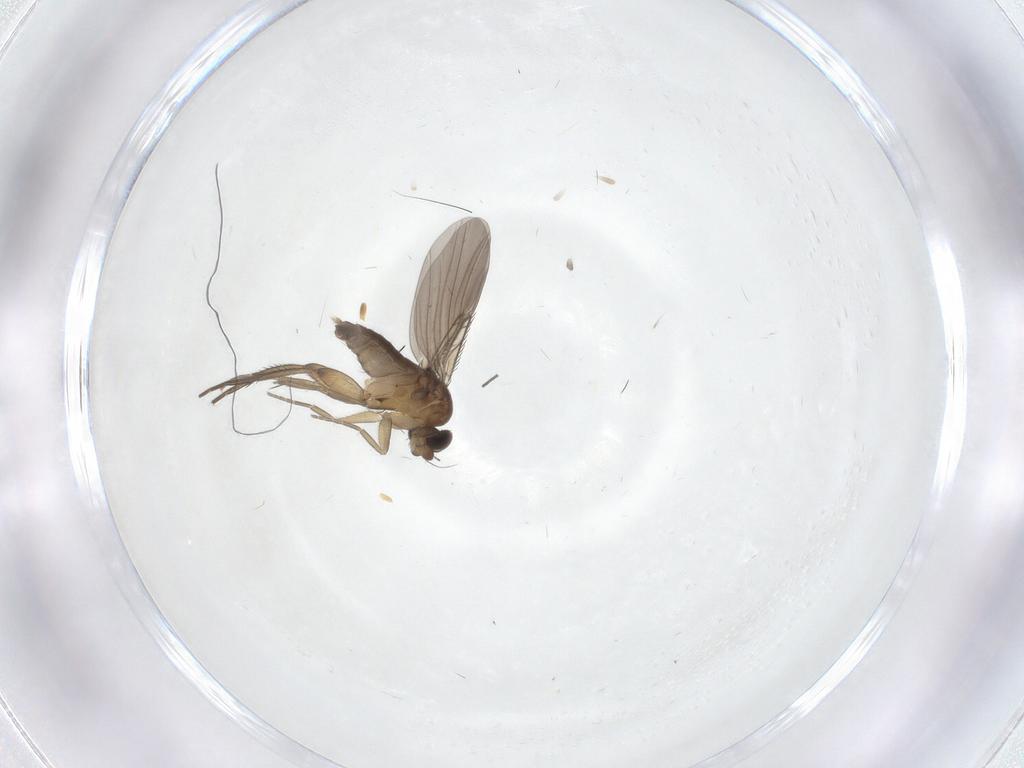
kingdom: Animalia
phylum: Arthropoda
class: Insecta
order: Diptera
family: Phoridae
